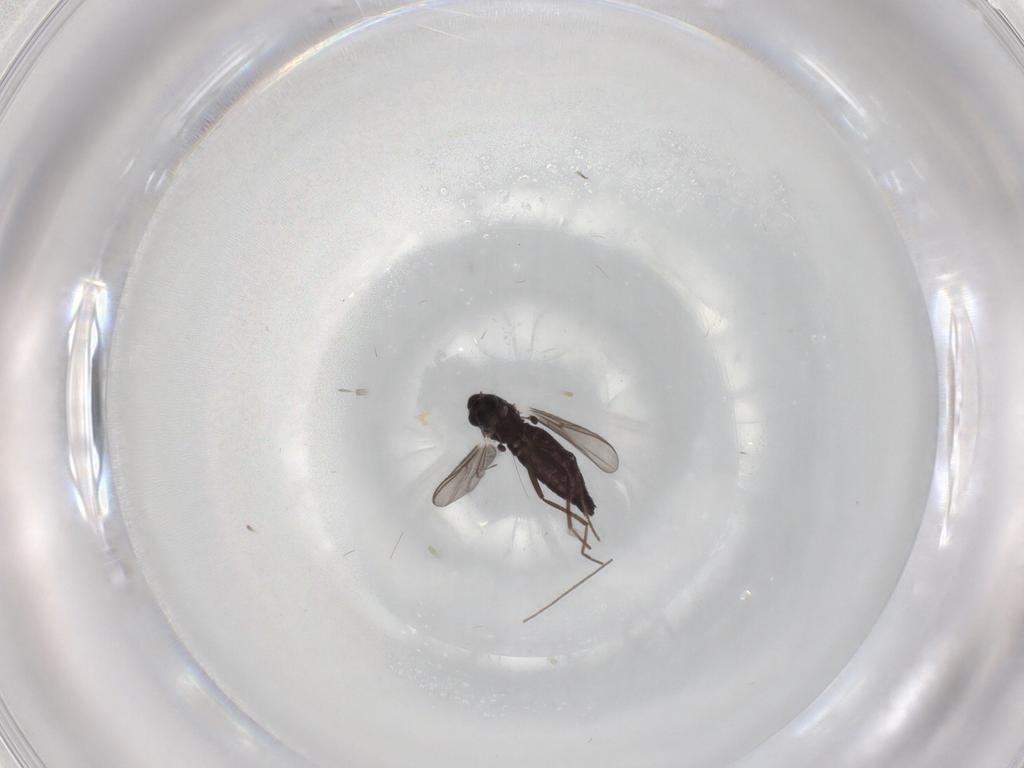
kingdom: Animalia
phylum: Arthropoda
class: Insecta
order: Diptera
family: Chironomidae
